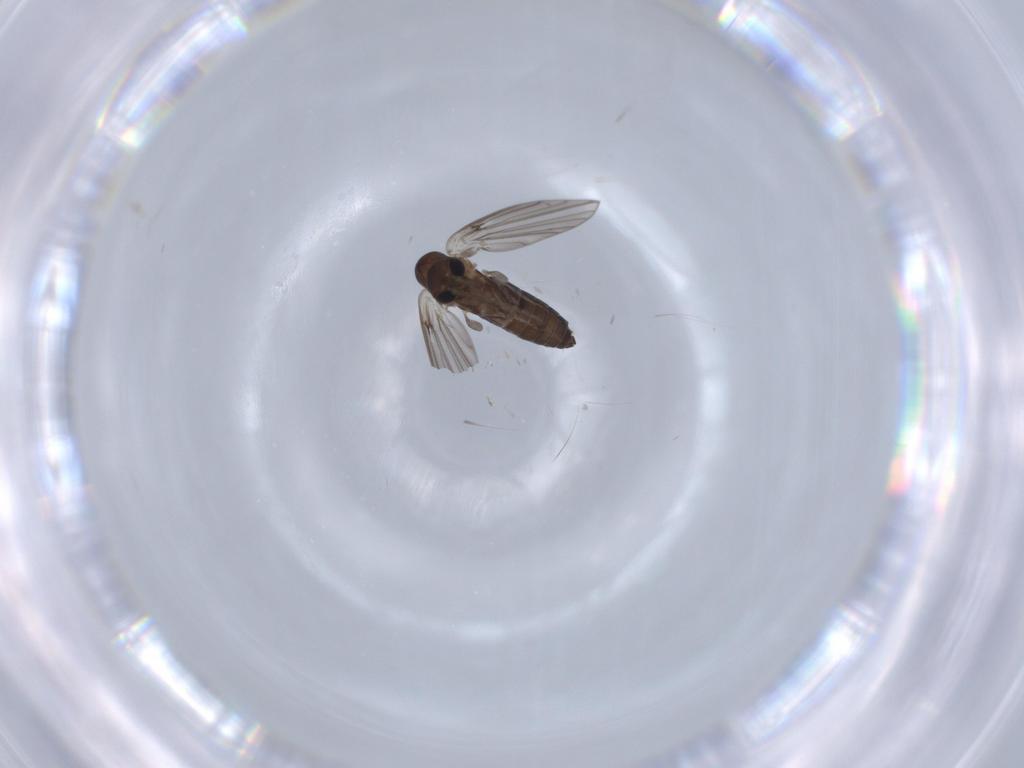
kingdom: Animalia
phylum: Arthropoda
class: Insecta
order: Diptera
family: Psychodidae
